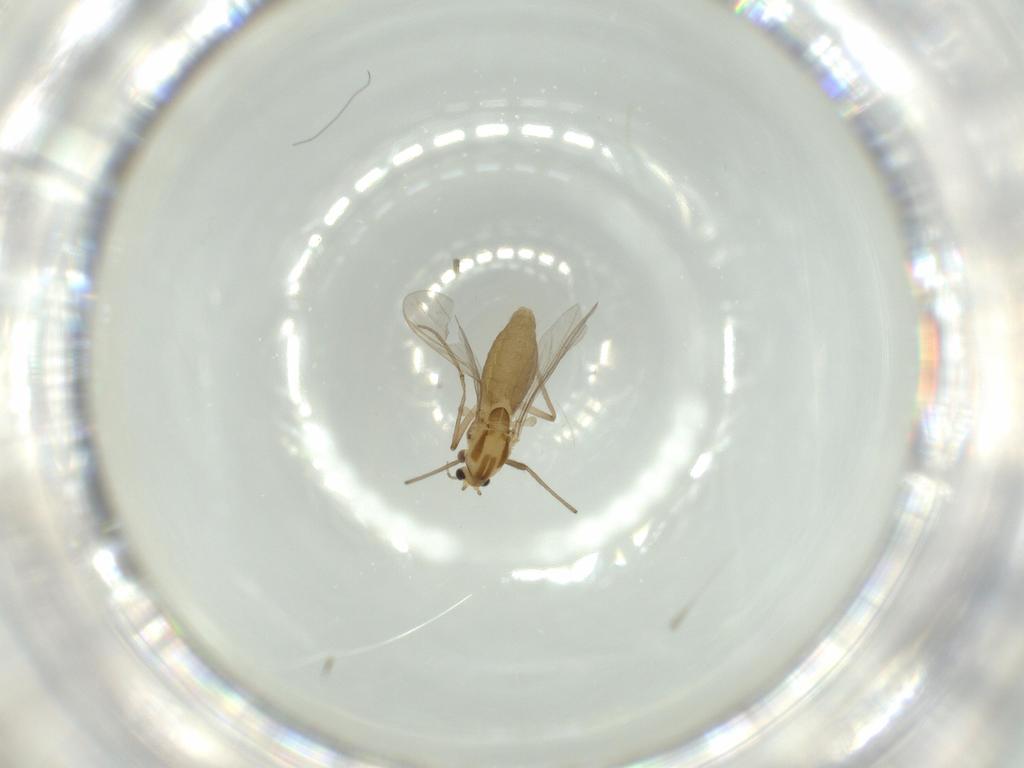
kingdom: Animalia
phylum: Arthropoda
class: Insecta
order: Diptera
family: Chironomidae
